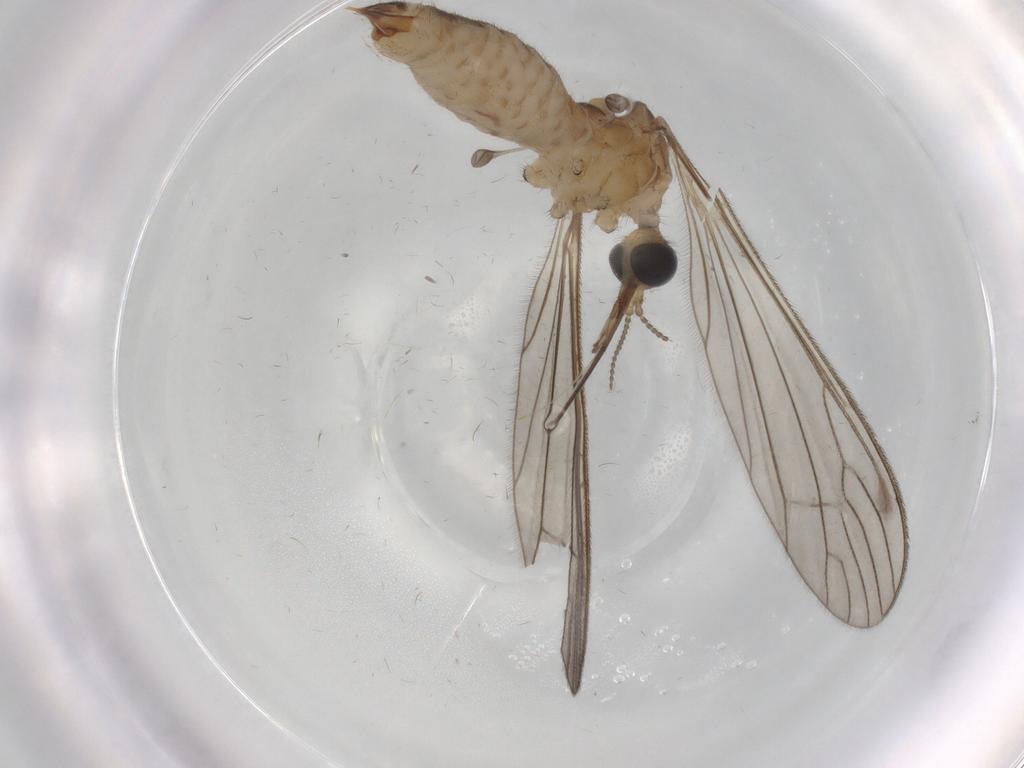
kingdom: Animalia
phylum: Arthropoda
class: Insecta
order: Diptera
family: Limoniidae
